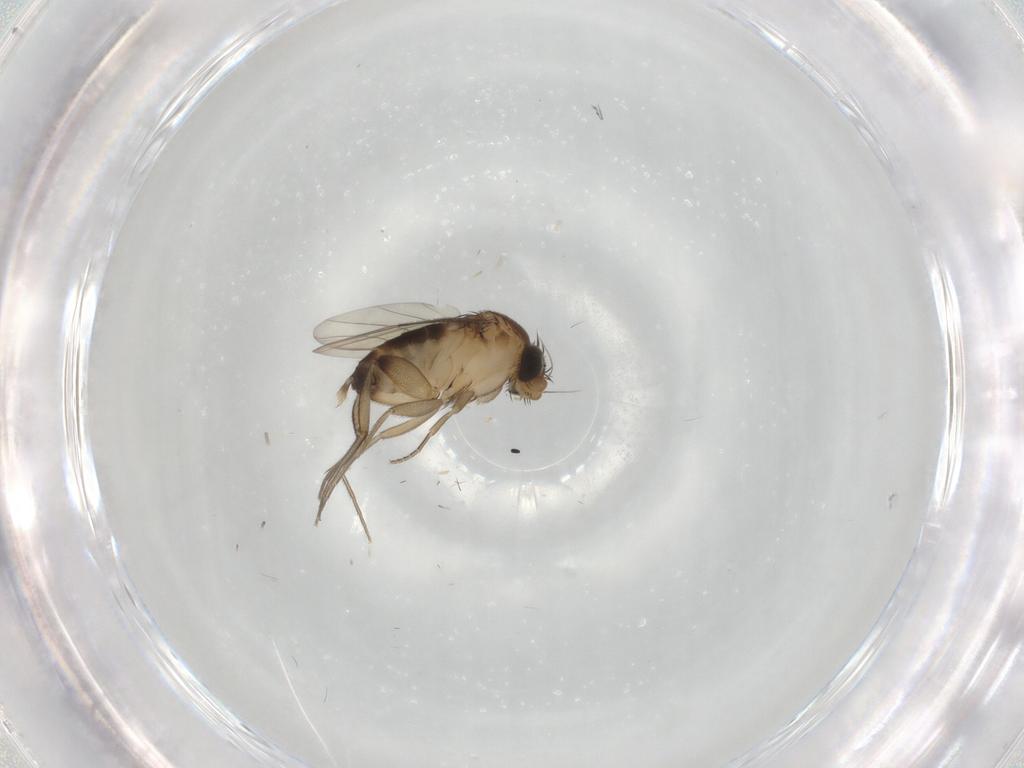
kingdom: Animalia
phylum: Arthropoda
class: Insecta
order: Diptera
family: Phoridae
